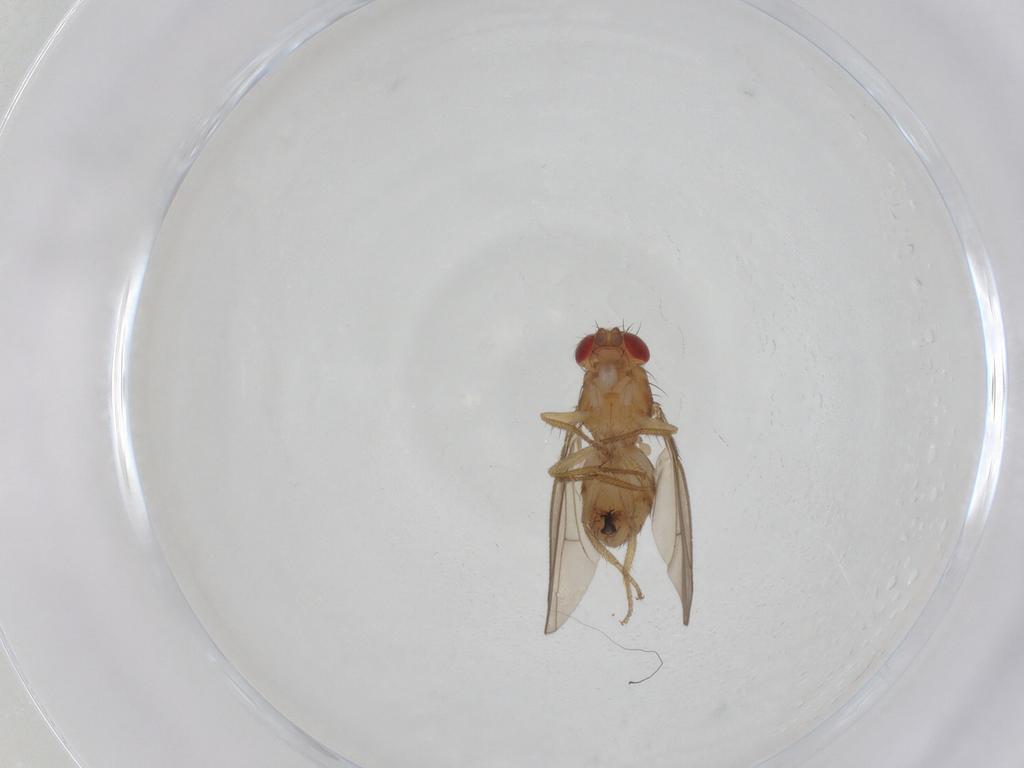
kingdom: Animalia
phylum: Arthropoda
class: Insecta
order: Diptera
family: Drosophilidae
